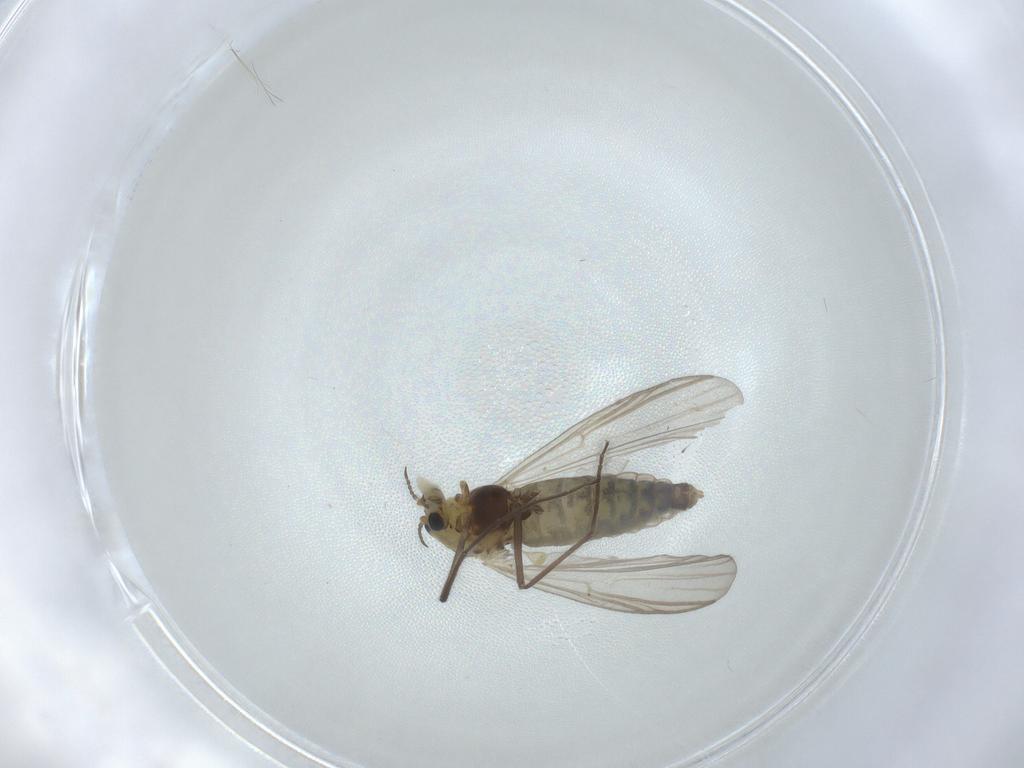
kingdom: Animalia
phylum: Arthropoda
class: Insecta
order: Diptera
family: Chironomidae
